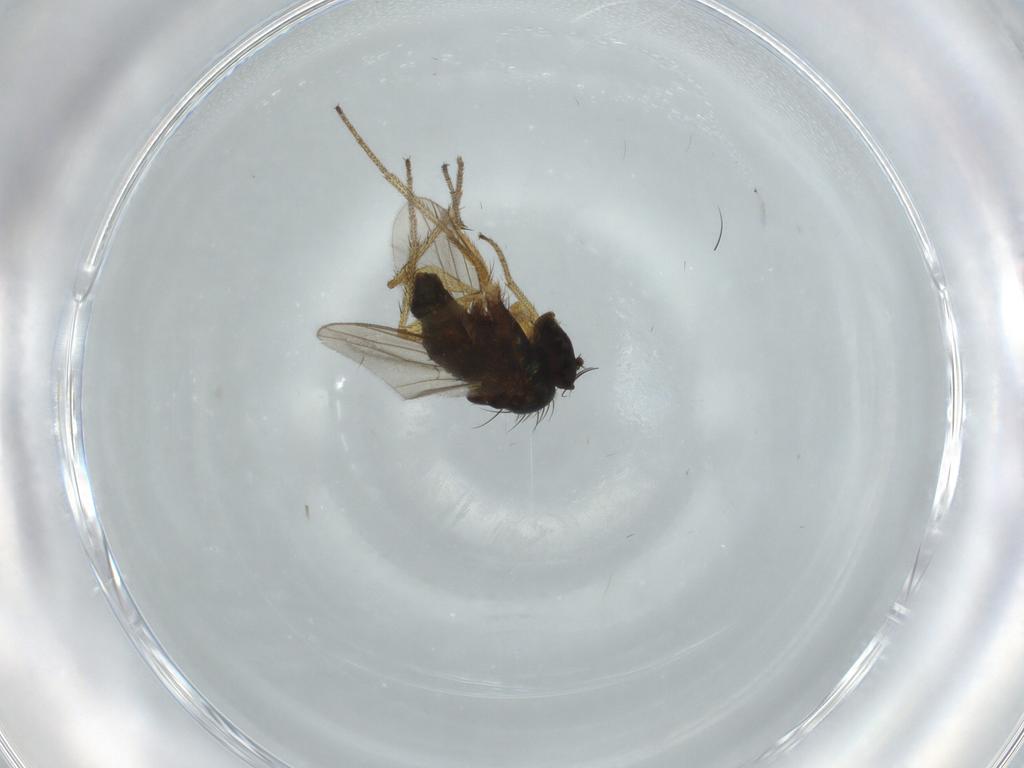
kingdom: Animalia
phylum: Arthropoda
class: Insecta
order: Diptera
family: Dolichopodidae
